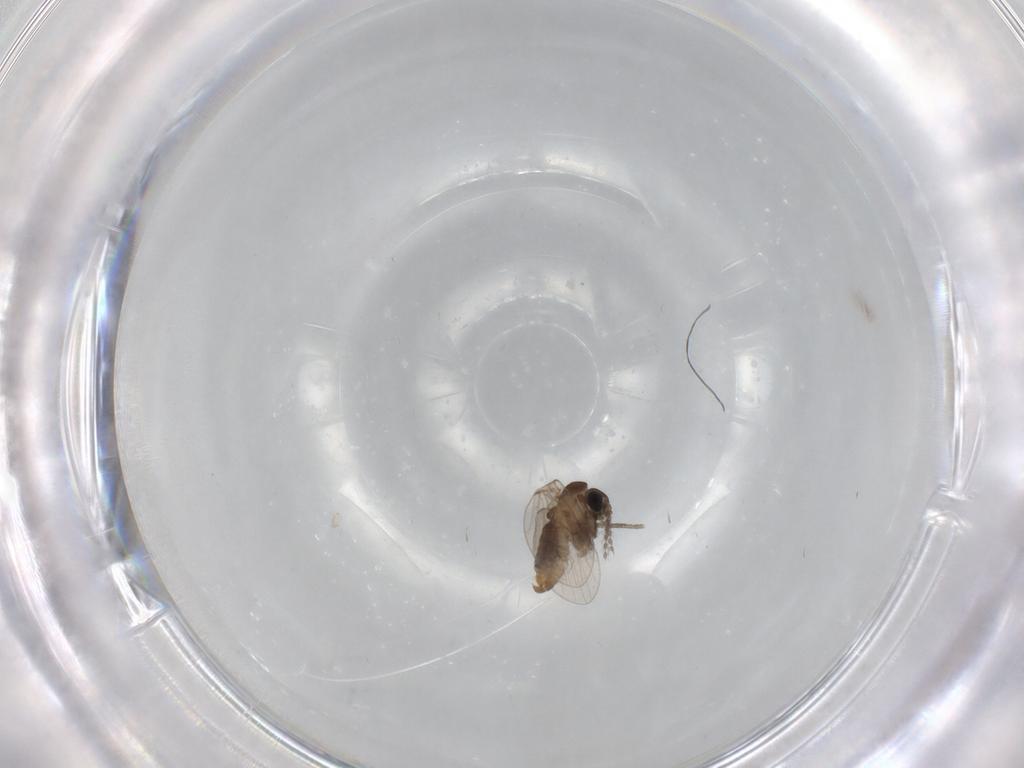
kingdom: Animalia
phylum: Arthropoda
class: Insecta
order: Diptera
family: Chironomidae
